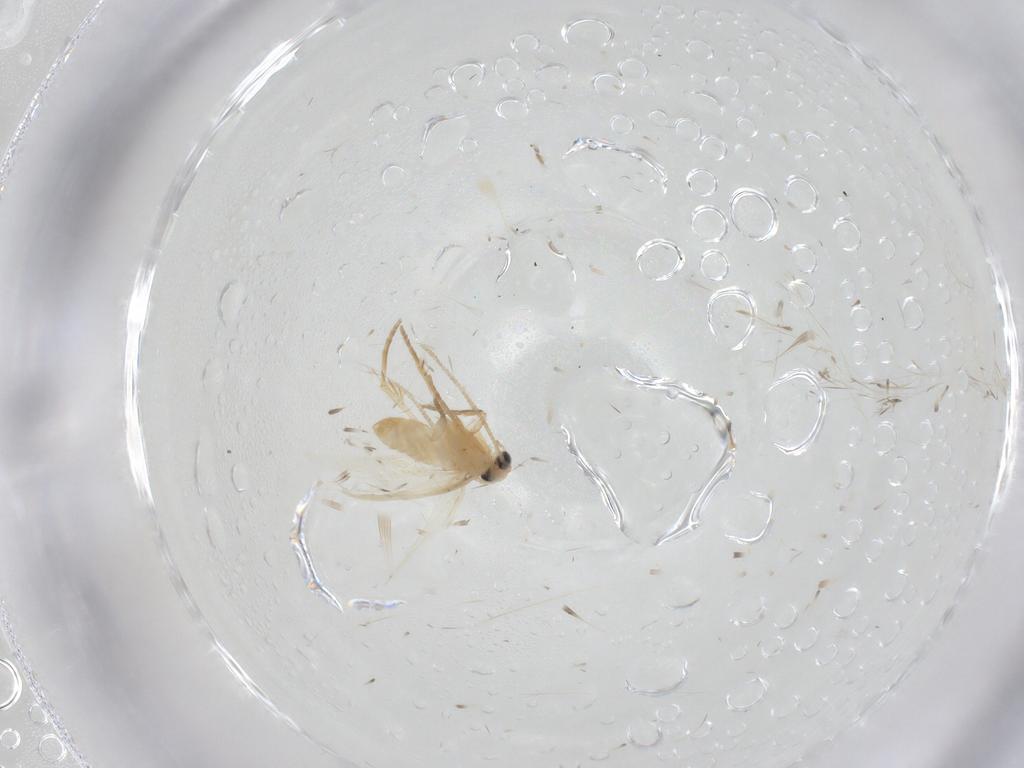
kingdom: Animalia
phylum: Arthropoda
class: Insecta
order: Lepidoptera
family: Nepticulidae
